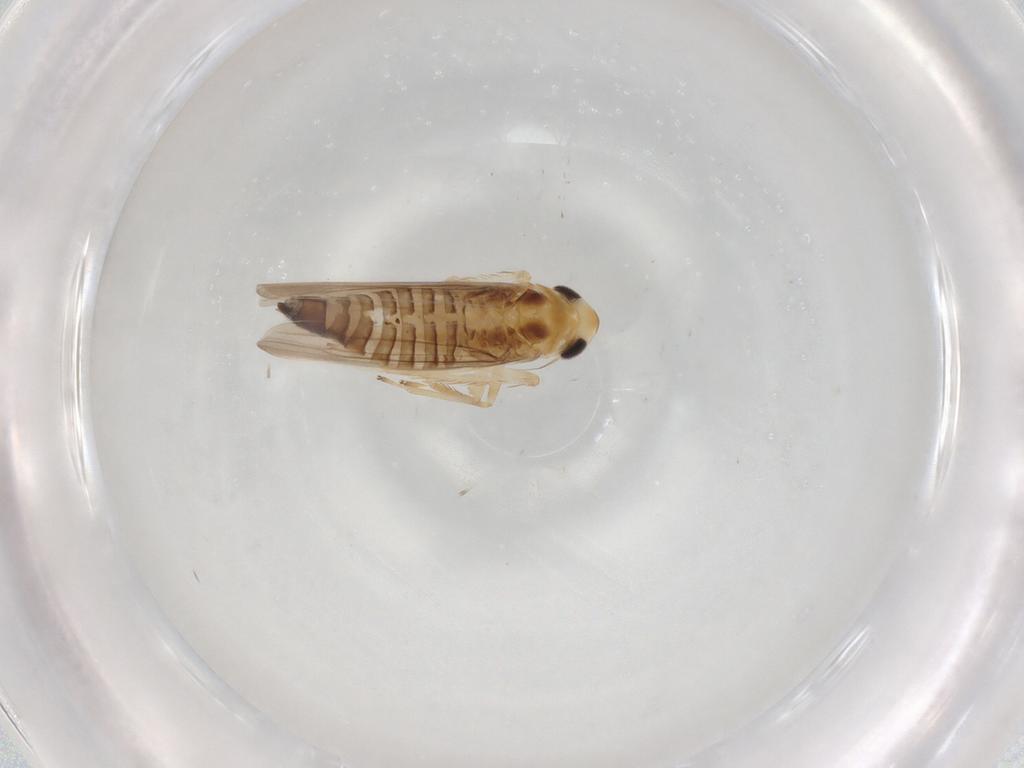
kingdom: Animalia
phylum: Arthropoda
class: Insecta
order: Hemiptera
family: Cicadellidae
